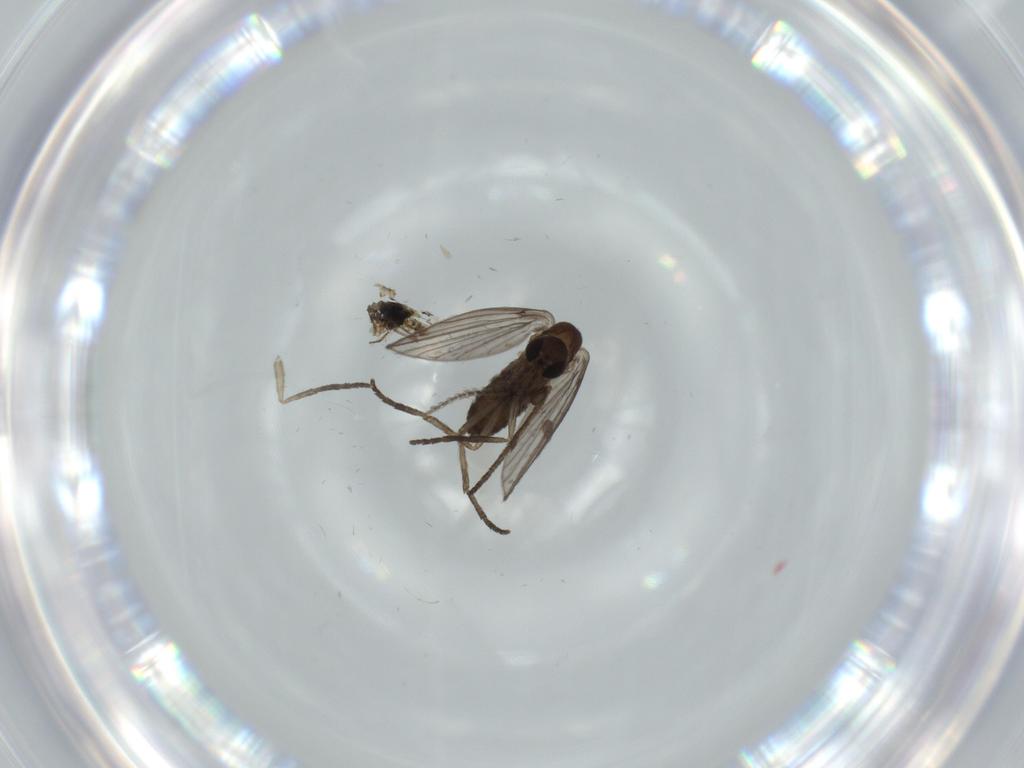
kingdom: Animalia
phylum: Arthropoda
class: Insecta
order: Diptera
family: Psychodidae
